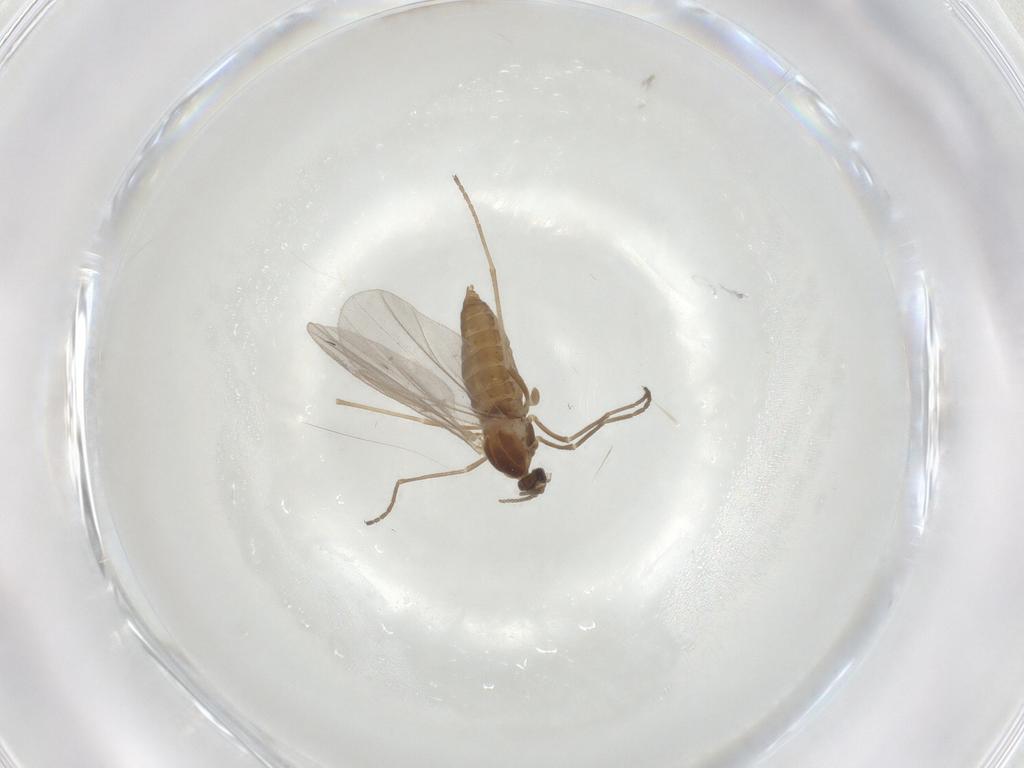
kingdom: Animalia
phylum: Arthropoda
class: Insecta
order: Diptera
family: Cecidomyiidae
